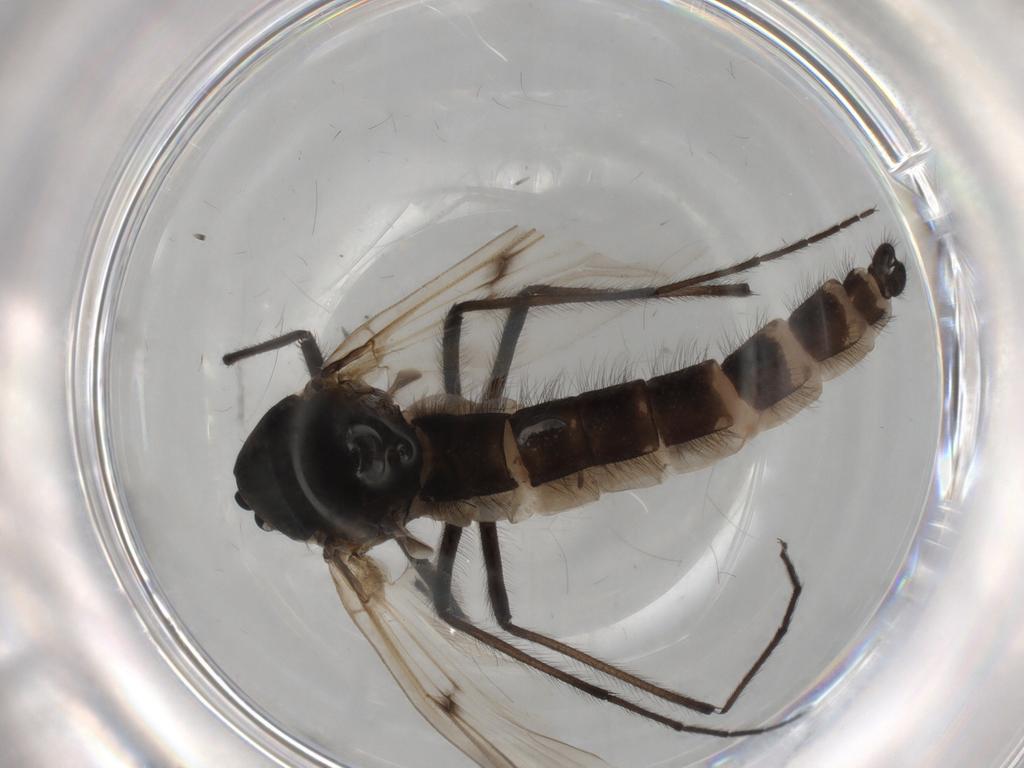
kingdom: Animalia
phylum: Arthropoda
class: Insecta
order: Diptera
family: Chironomidae
